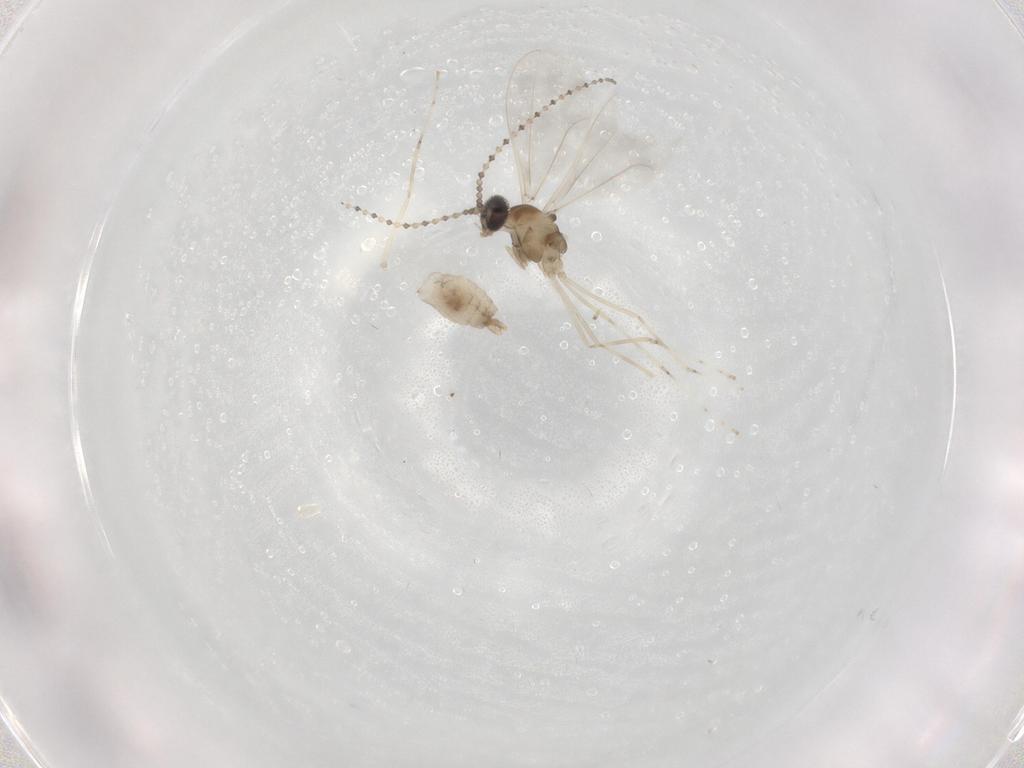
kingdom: Animalia
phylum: Arthropoda
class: Insecta
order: Diptera
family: Cecidomyiidae
